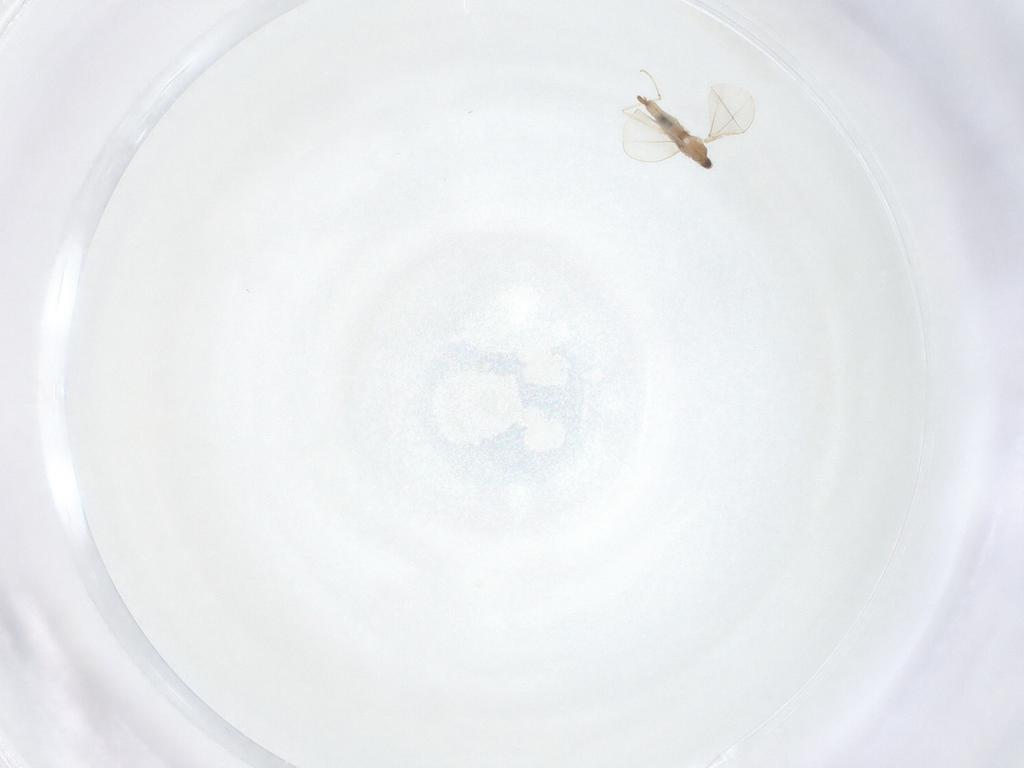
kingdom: Animalia
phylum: Arthropoda
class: Insecta
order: Diptera
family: Cecidomyiidae
